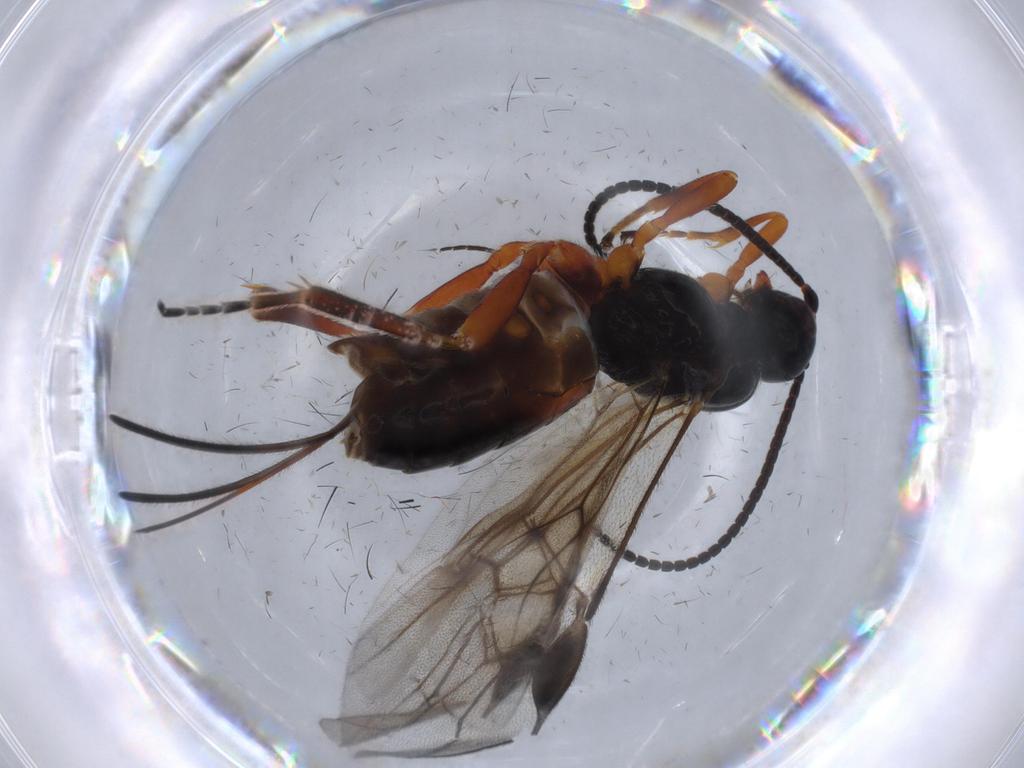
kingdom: Animalia
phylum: Arthropoda
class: Insecta
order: Hymenoptera
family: Braconidae
